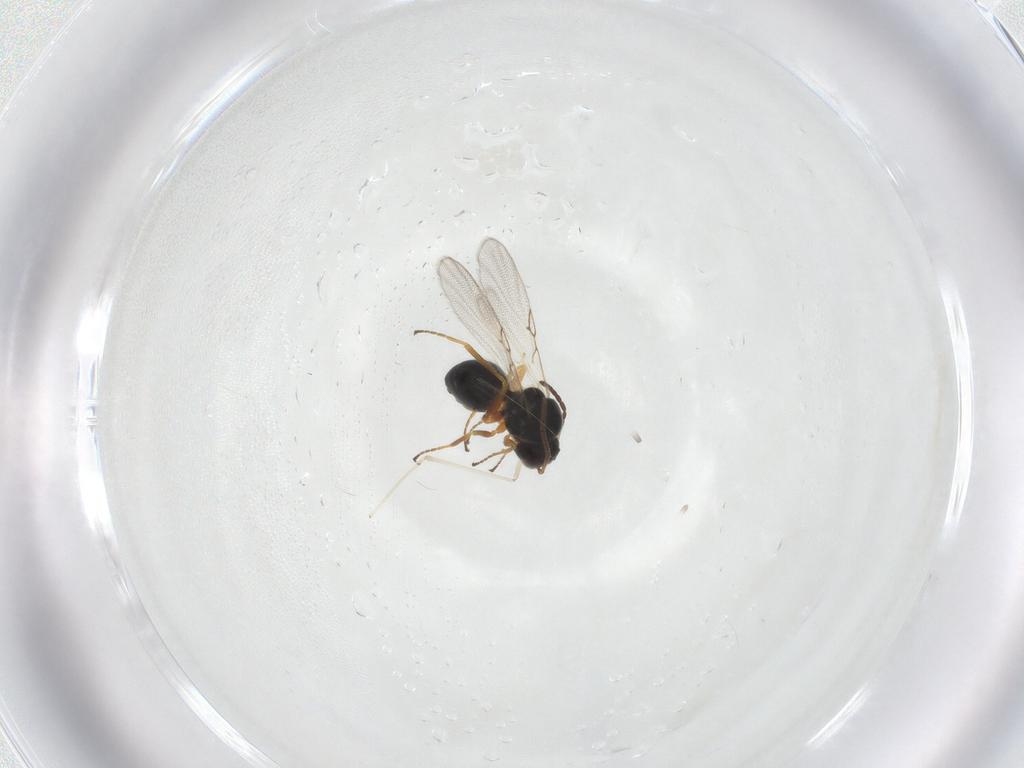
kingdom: Animalia
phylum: Arthropoda
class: Insecta
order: Hymenoptera
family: Figitidae
